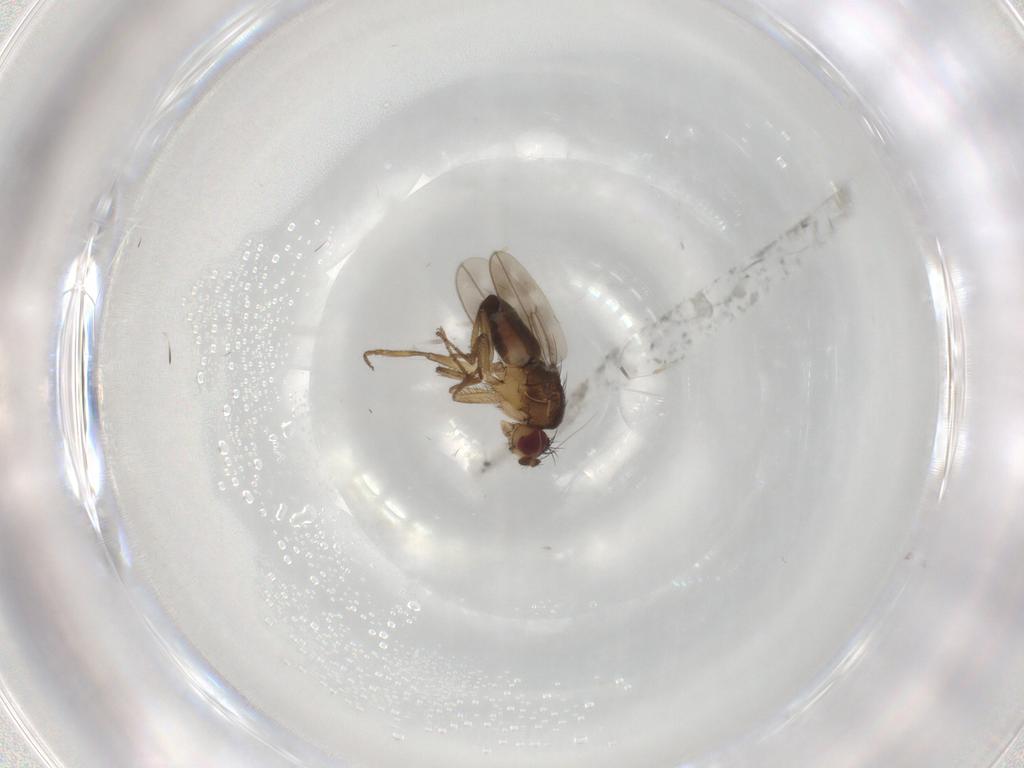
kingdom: Animalia
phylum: Arthropoda
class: Insecta
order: Diptera
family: Sphaeroceridae
